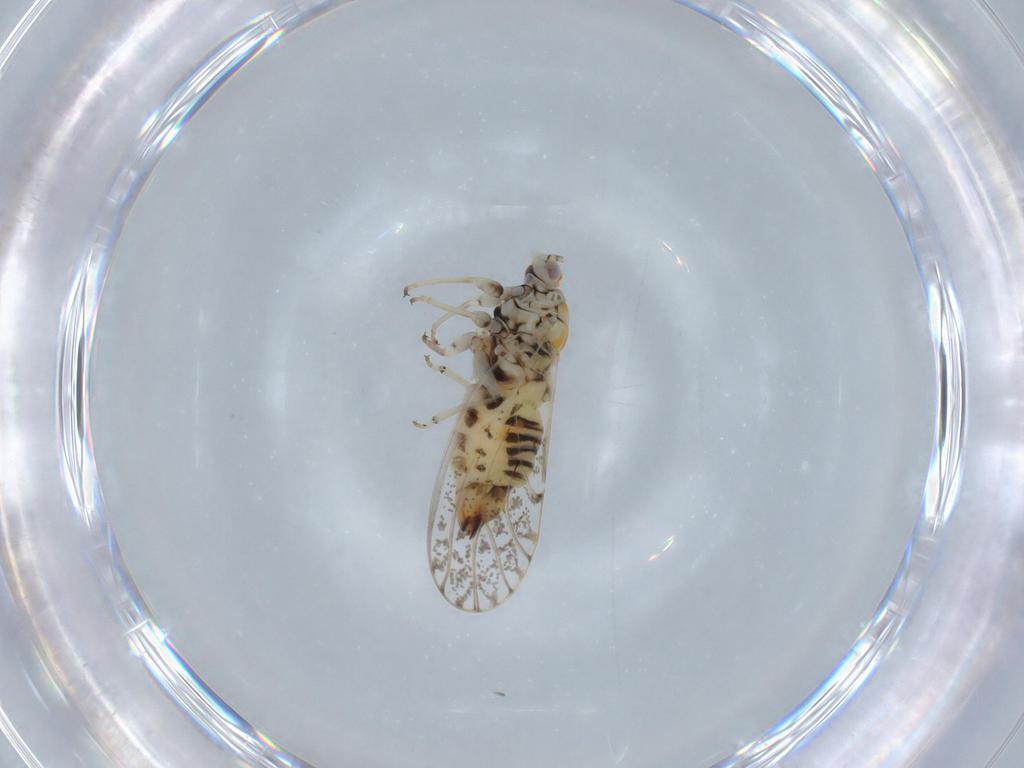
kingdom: Animalia
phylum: Arthropoda
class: Insecta
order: Hemiptera
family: Psyllidae
